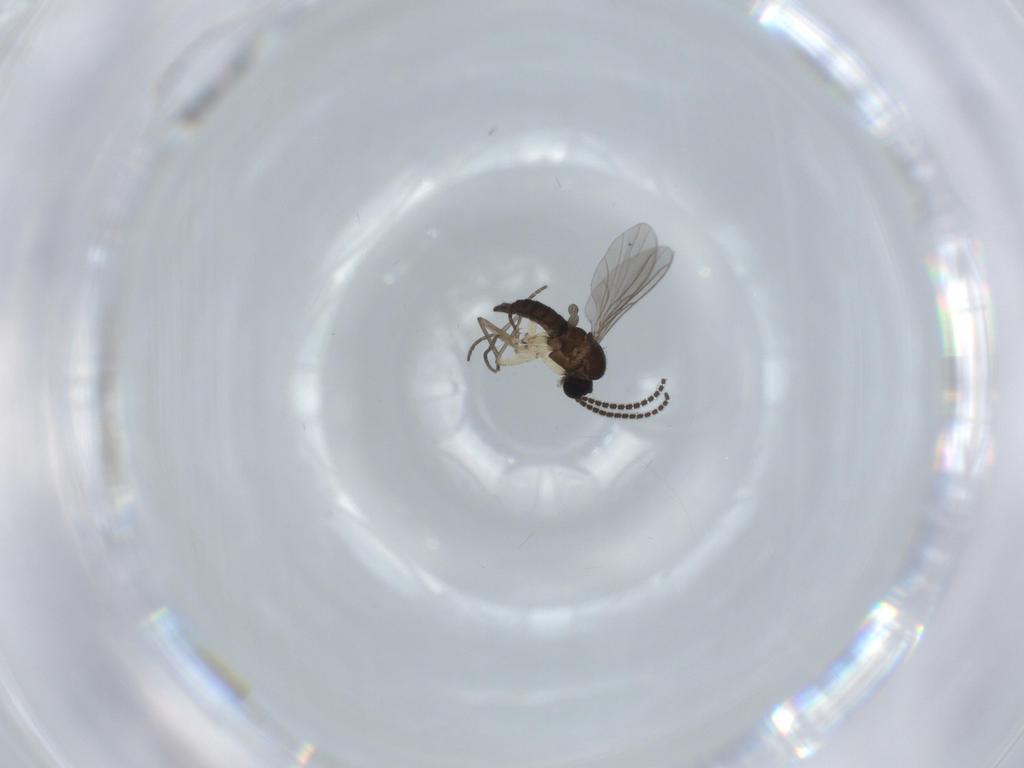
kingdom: Animalia
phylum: Arthropoda
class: Insecta
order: Diptera
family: Sciaridae
